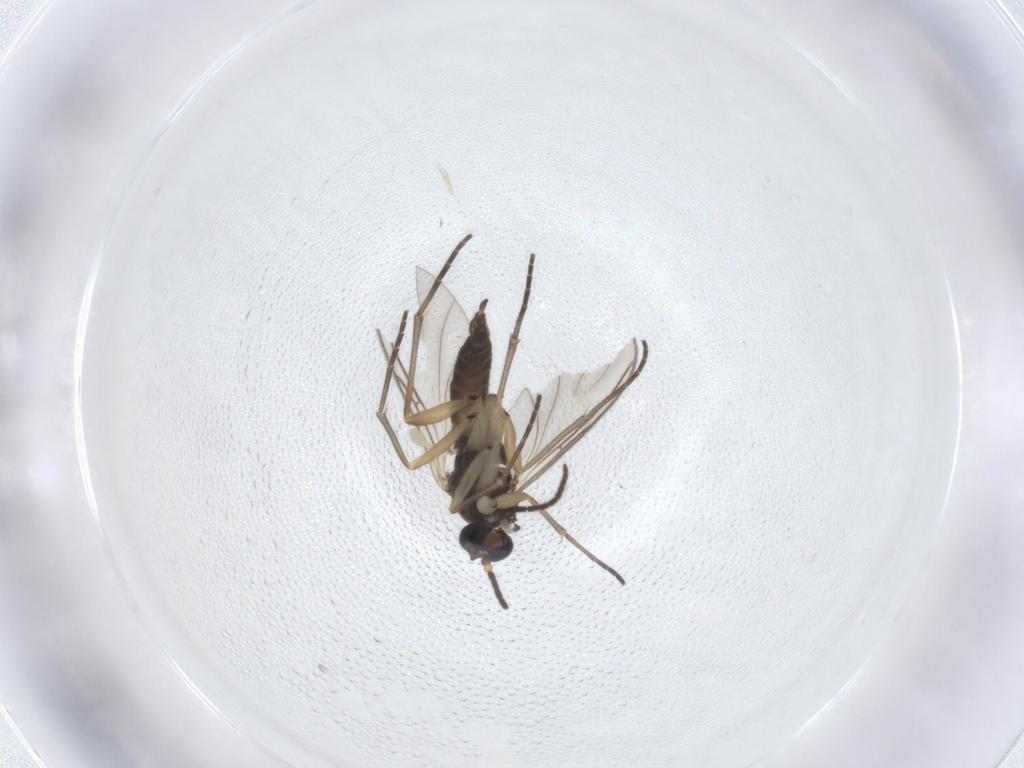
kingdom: Animalia
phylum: Arthropoda
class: Insecta
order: Diptera
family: Sciaridae
